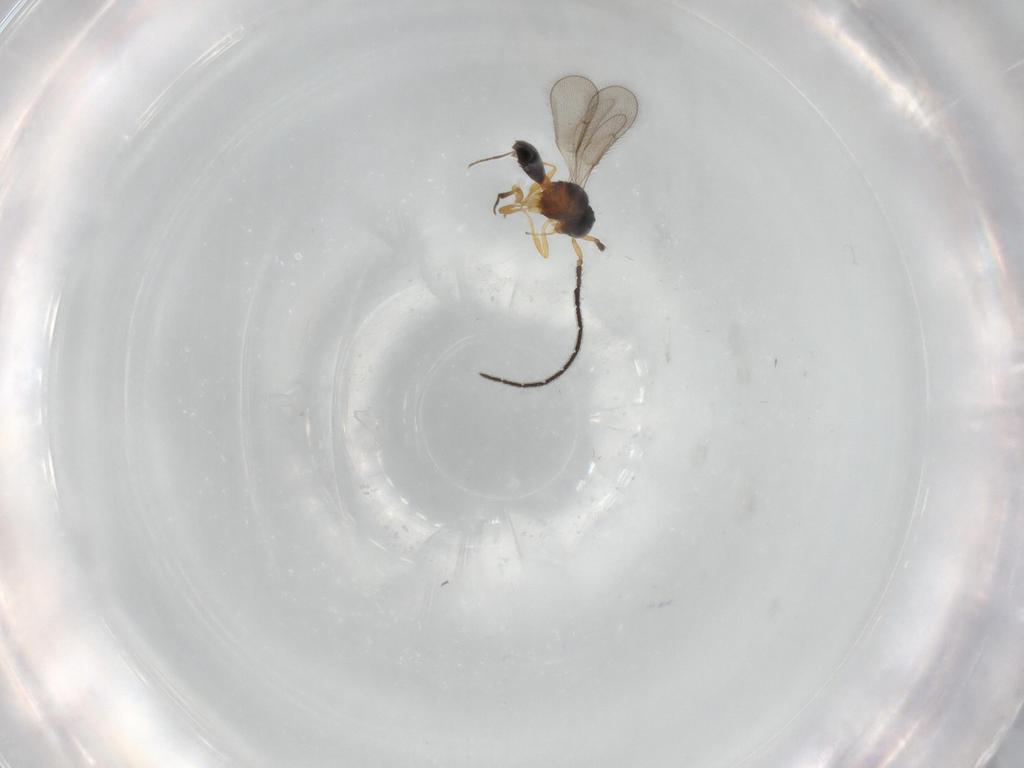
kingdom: Animalia
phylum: Arthropoda
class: Insecta
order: Hymenoptera
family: Scelionidae
